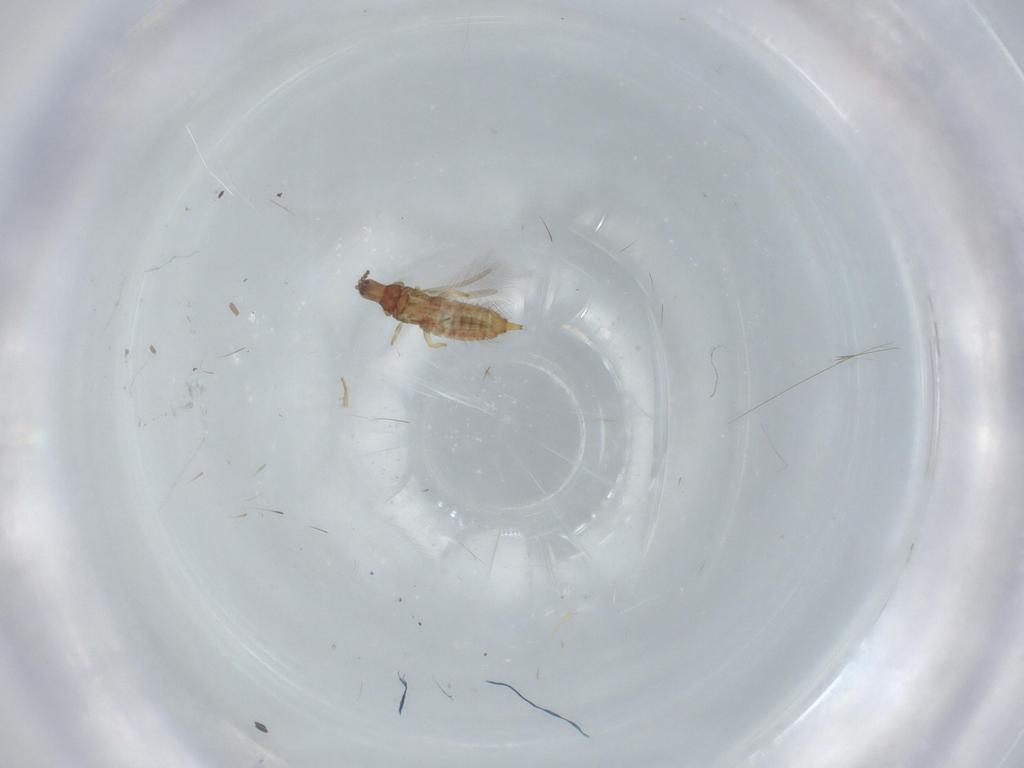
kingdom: Animalia
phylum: Arthropoda
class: Insecta
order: Thysanoptera
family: Phlaeothripidae
